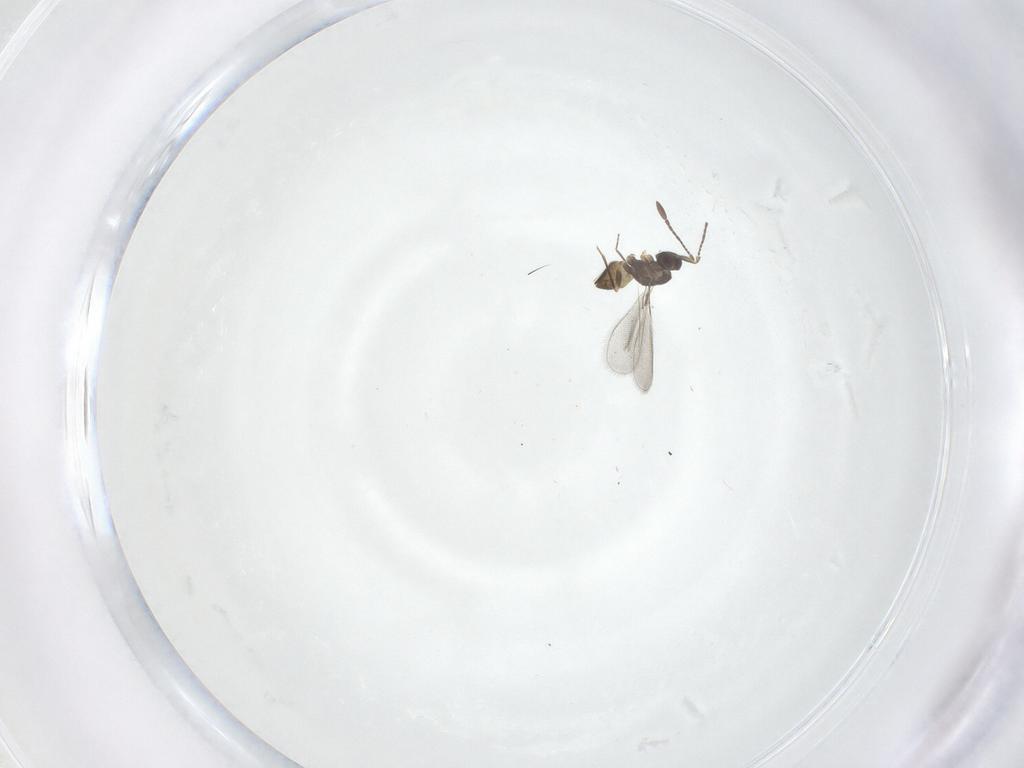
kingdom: Animalia
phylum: Arthropoda
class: Insecta
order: Hymenoptera
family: Mymaridae
